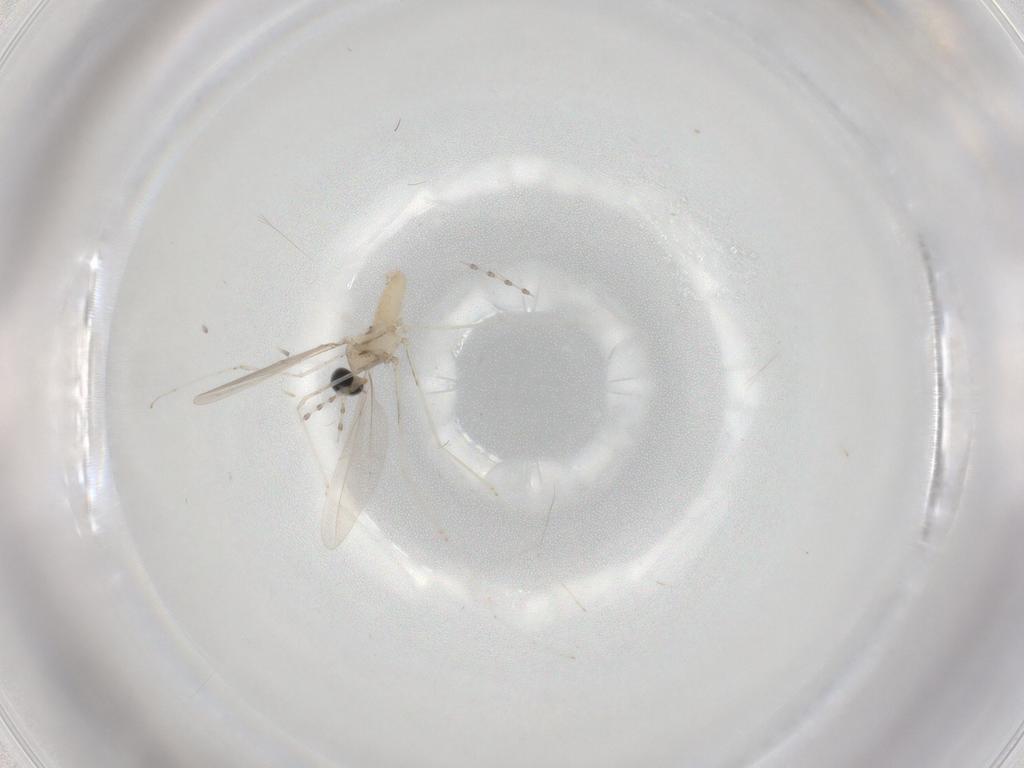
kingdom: Animalia
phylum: Arthropoda
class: Insecta
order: Diptera
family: Cecidomyiidae
